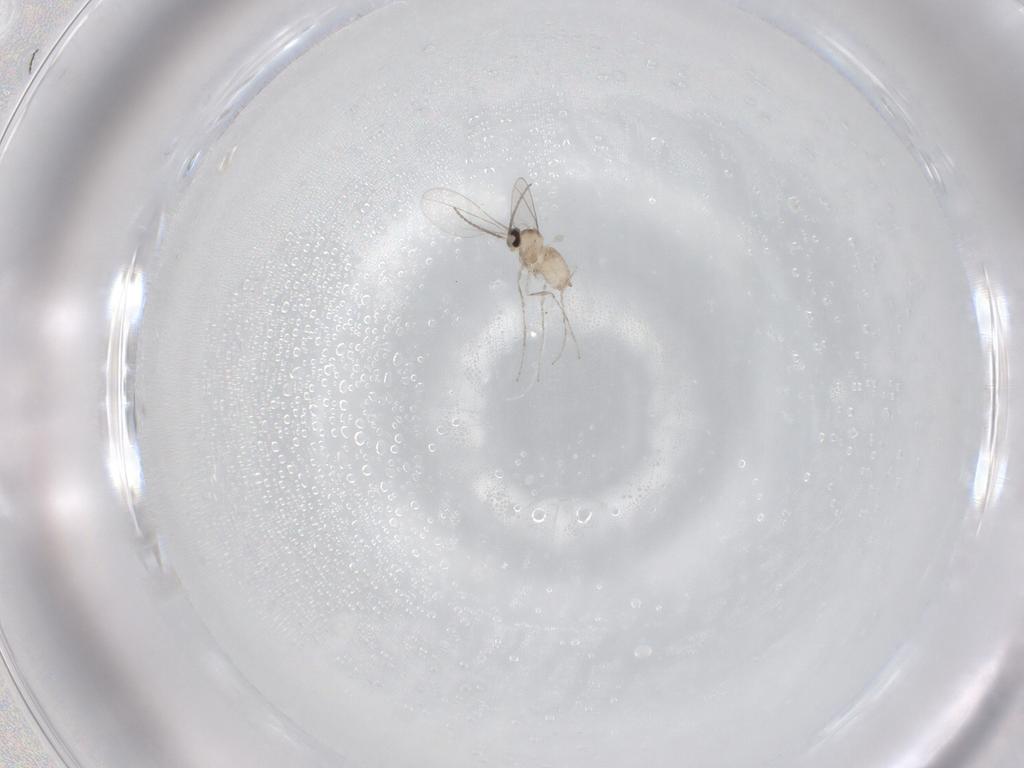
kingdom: Animalia
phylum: Arthropoda
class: Insecta
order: Diptera
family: Cecidomyiidae
